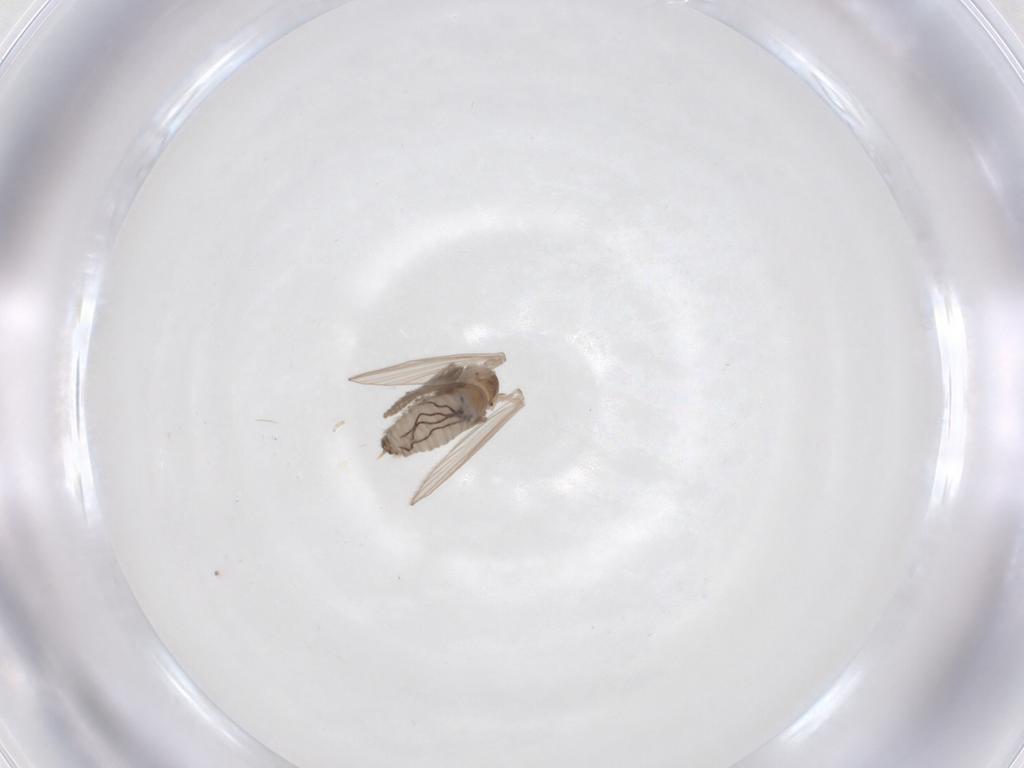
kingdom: Animalia
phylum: Arthropoda
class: Insecta
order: Diptera
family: Psychodidae
